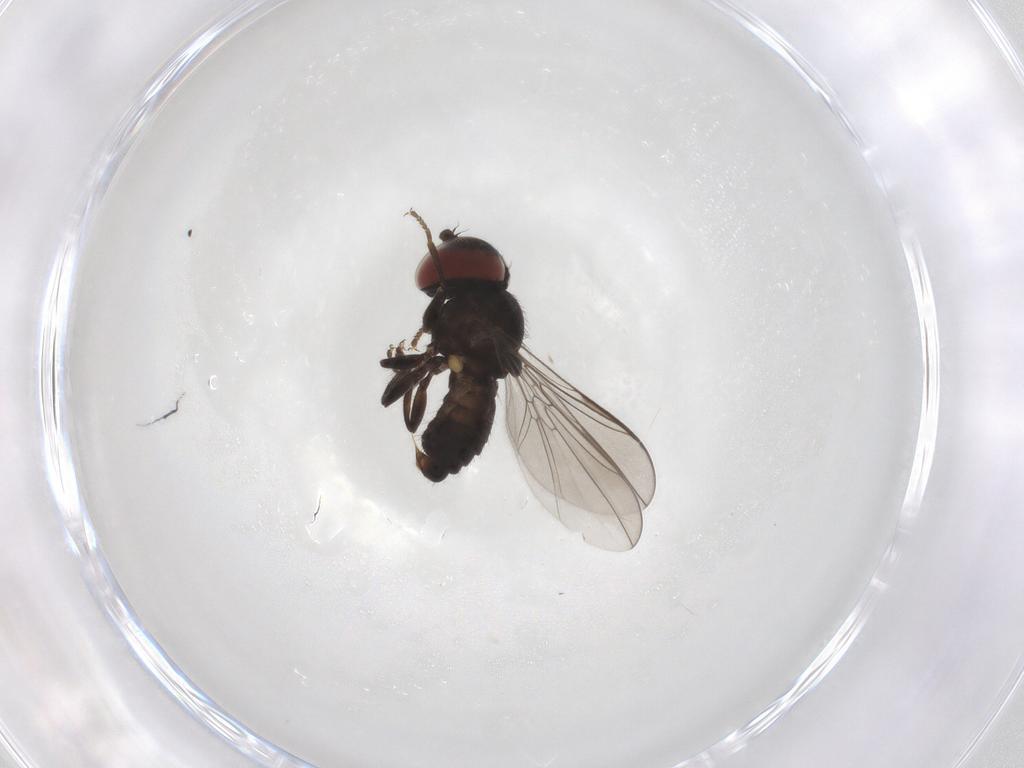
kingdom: Animalia
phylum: Arthropoda
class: Insecta
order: Diptera
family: Pipunculidae
